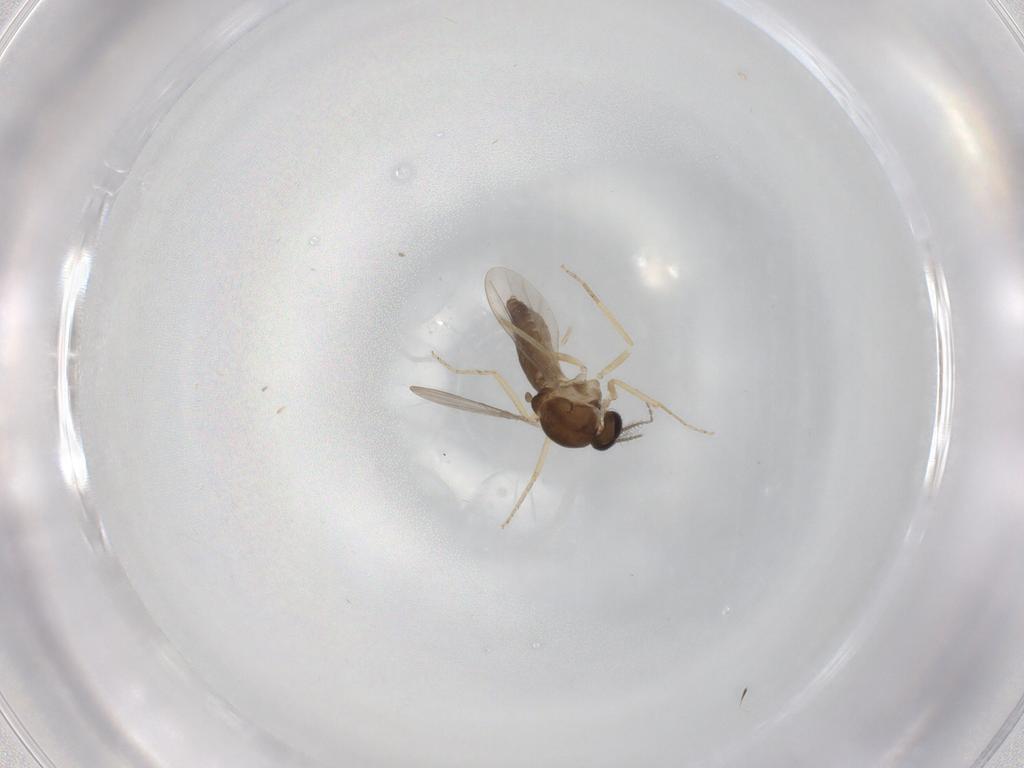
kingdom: Animalia
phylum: Arthropoda
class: Insecta
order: Diptera
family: Ceratopogonidae
